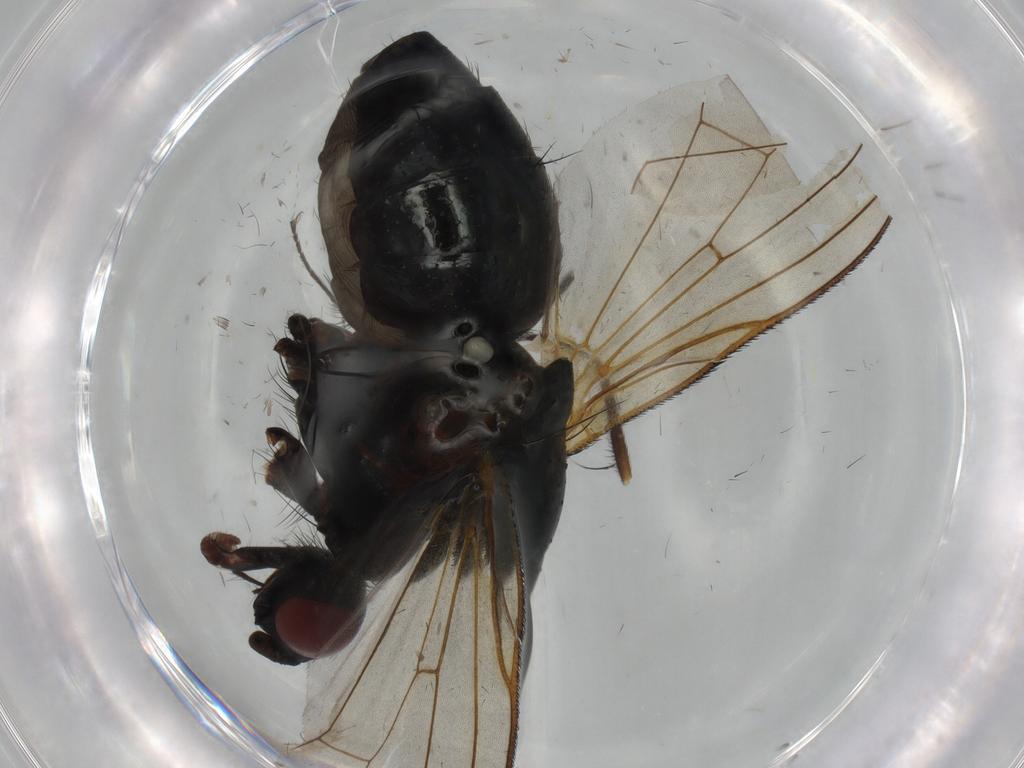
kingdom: Animalia
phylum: Arthropoda
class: Insecta
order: Diptera
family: Anthomyiidae
